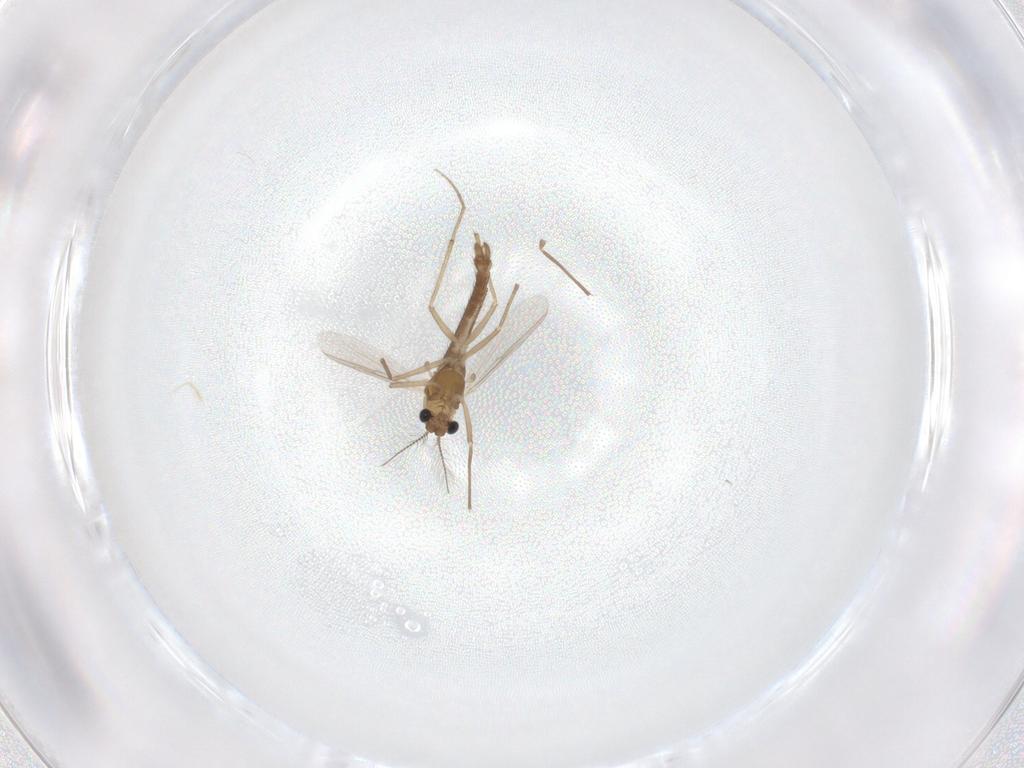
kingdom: Animalia
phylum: Arthropoda
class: Insecta
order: Diptera
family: Chironomidae
